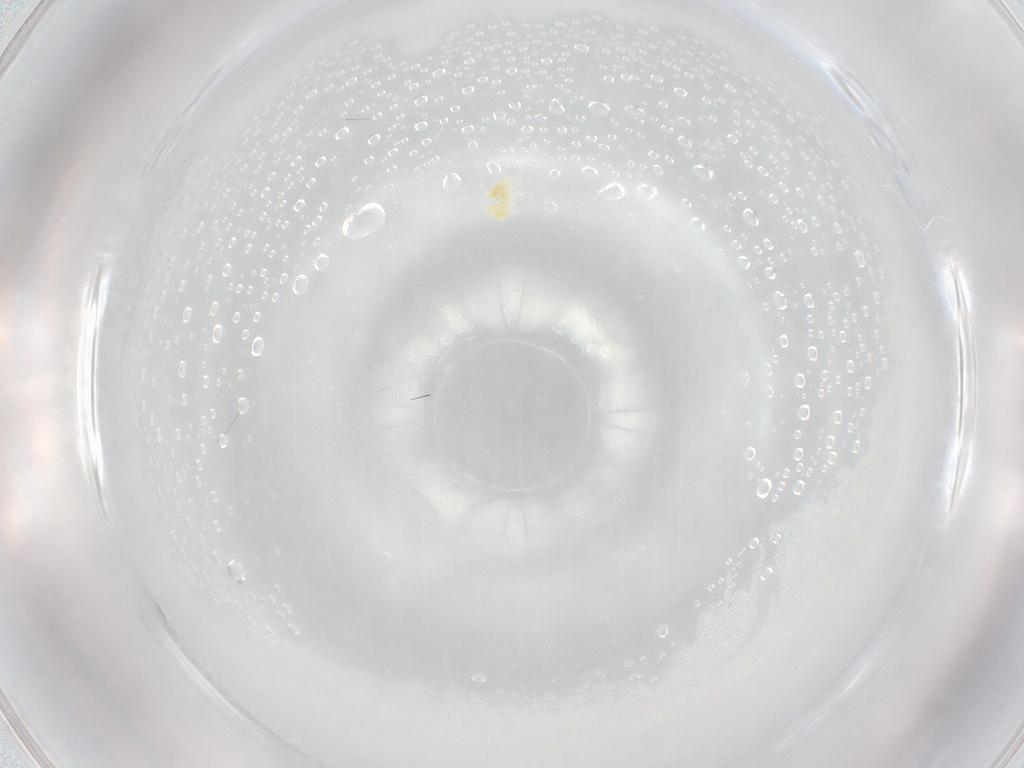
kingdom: Animalia
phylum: Arthropoda
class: Arachnida
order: Trombidiformes
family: Eupodidae
